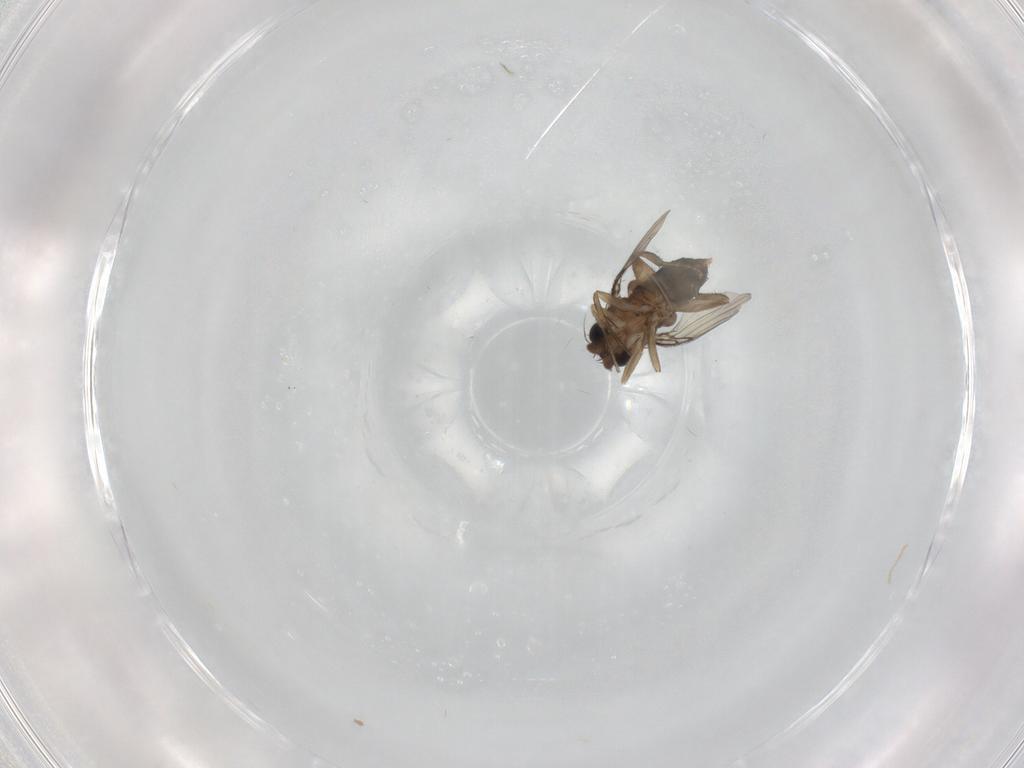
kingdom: Animalia
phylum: Arthropoda
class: Insecta
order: Diptera
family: Phoridae
